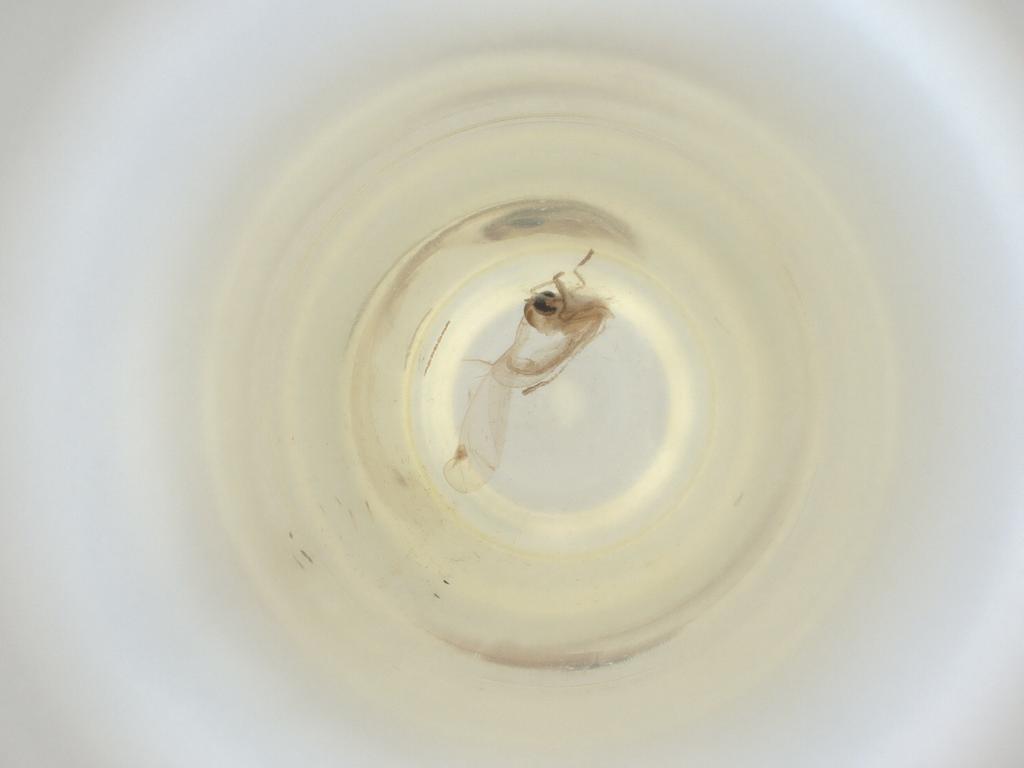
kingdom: Animalia
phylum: Arthropoda
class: Insecta
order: Diptera
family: Cecidomyiidae
